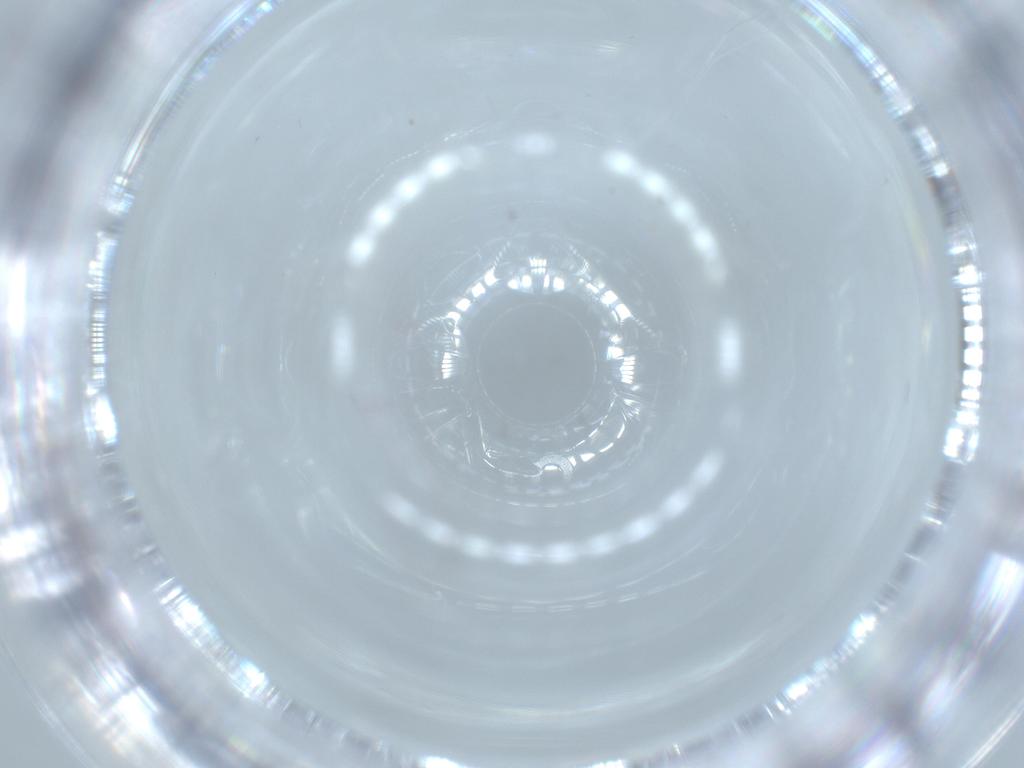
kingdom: Animalia
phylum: Arthropoda
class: Insecta
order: Hymenoptera
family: Platygastridae
